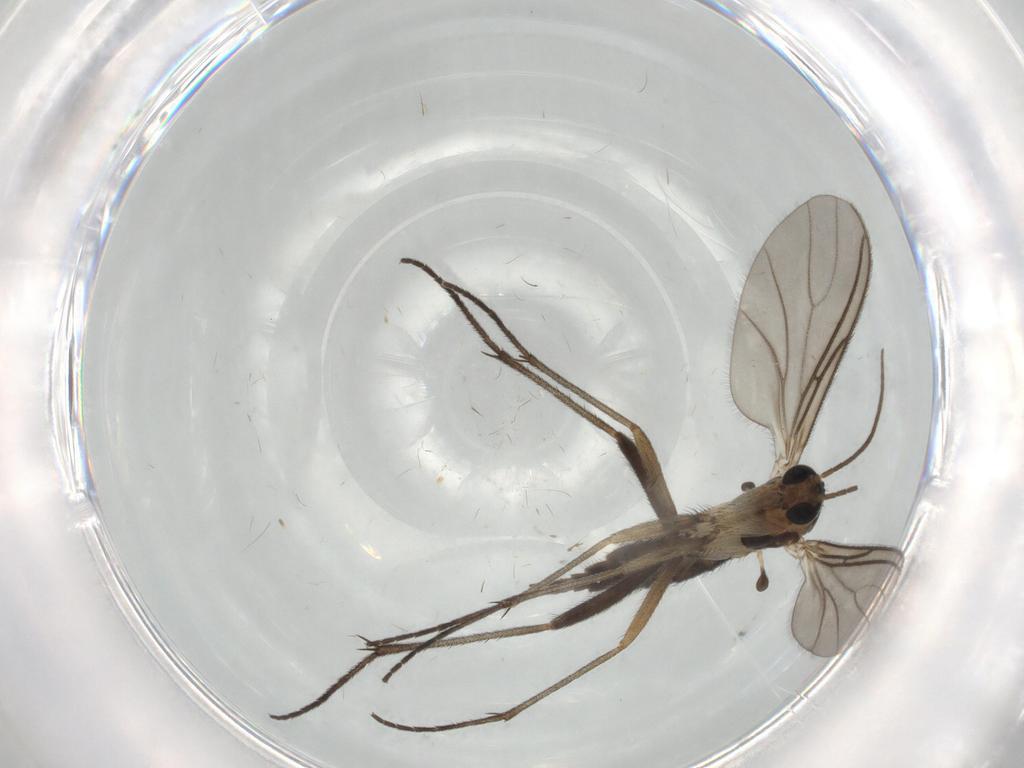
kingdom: Animalia
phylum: Arthropoda
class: Insecta
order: Diptera
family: Sciaridae
